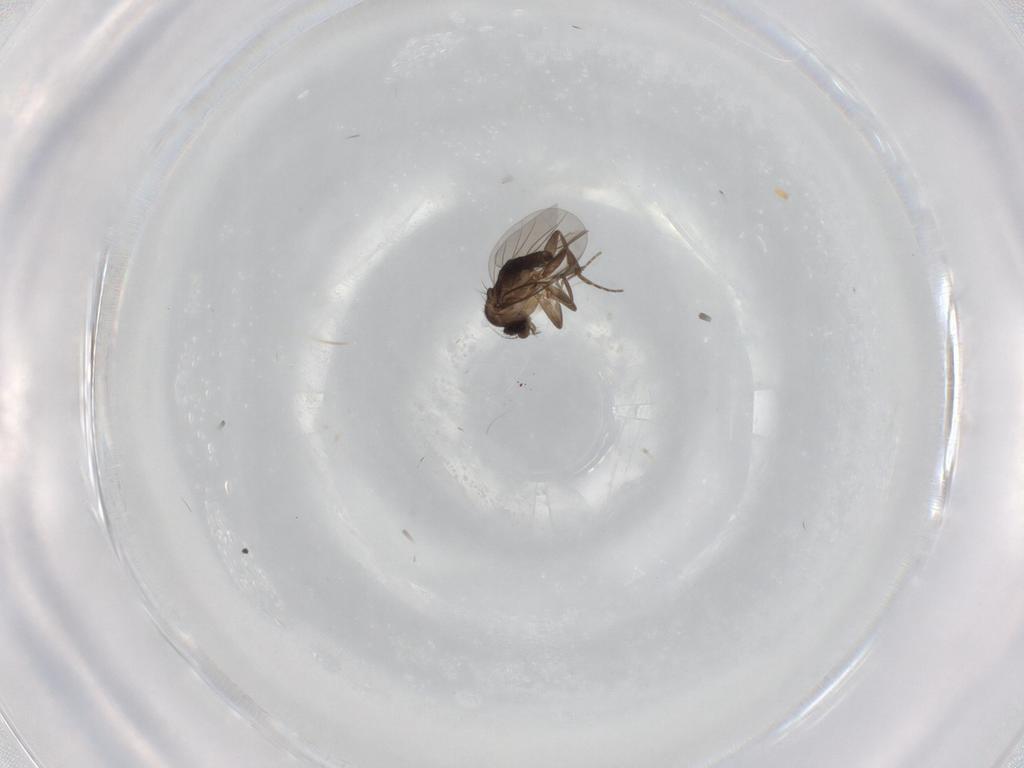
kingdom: Animalia
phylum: Arthropoda
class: Insecta
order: Diptera
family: Phoridae
